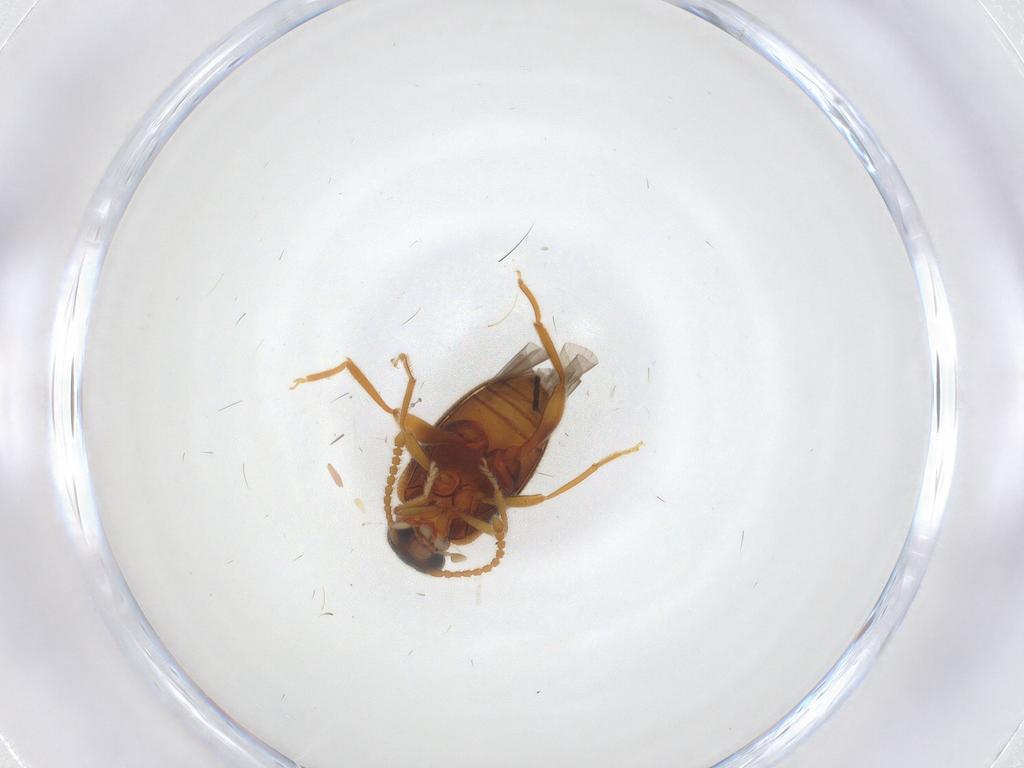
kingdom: Animalia
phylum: Arthropoda
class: Insecta
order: Coleoptera
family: Aderidae
